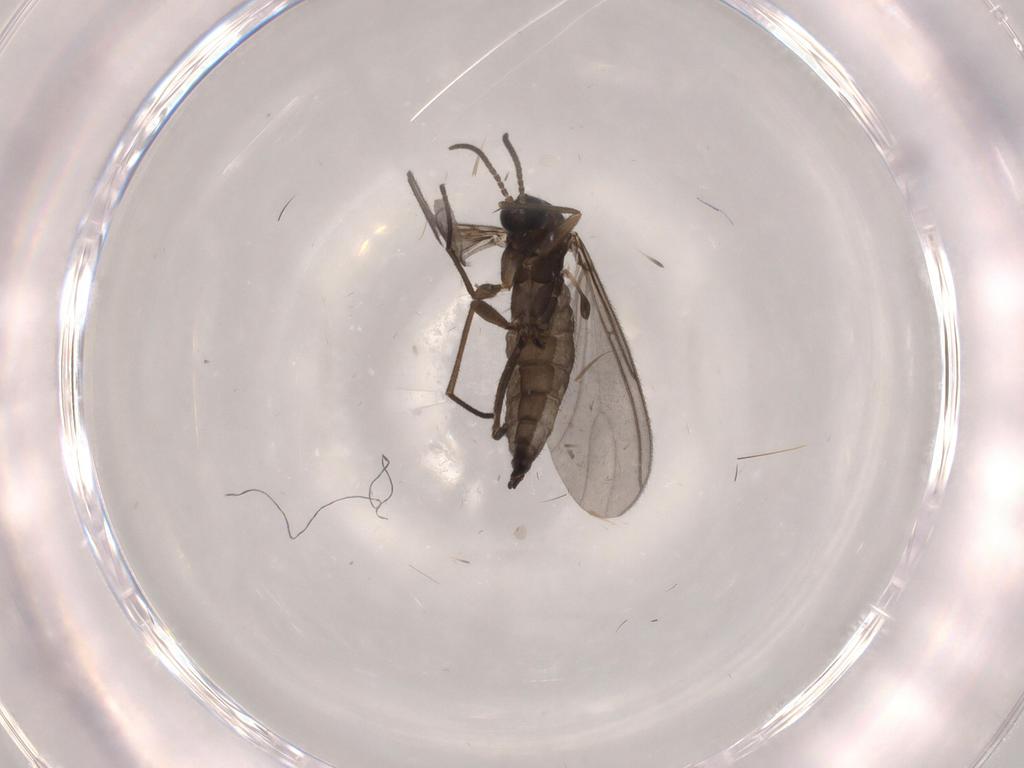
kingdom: Animalia
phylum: Arthropoda
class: Insecta
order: Diptera
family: Sciaridae
